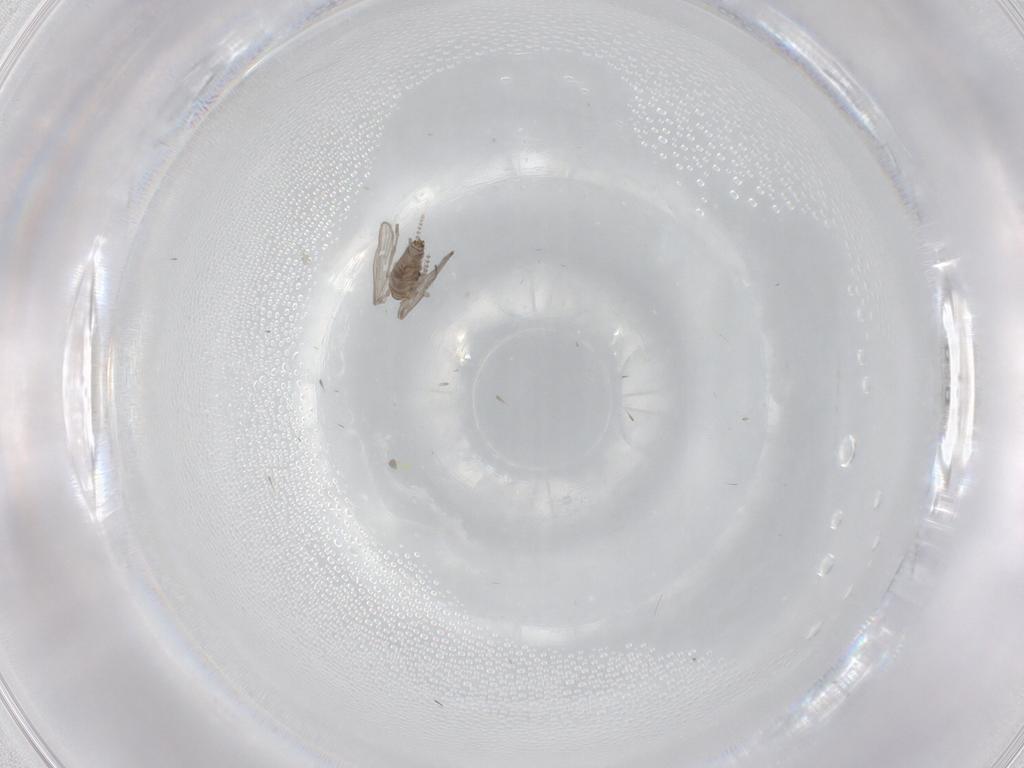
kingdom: Animalia
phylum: Arthropoda
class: Insecta
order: Diptera
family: Psychodidae
